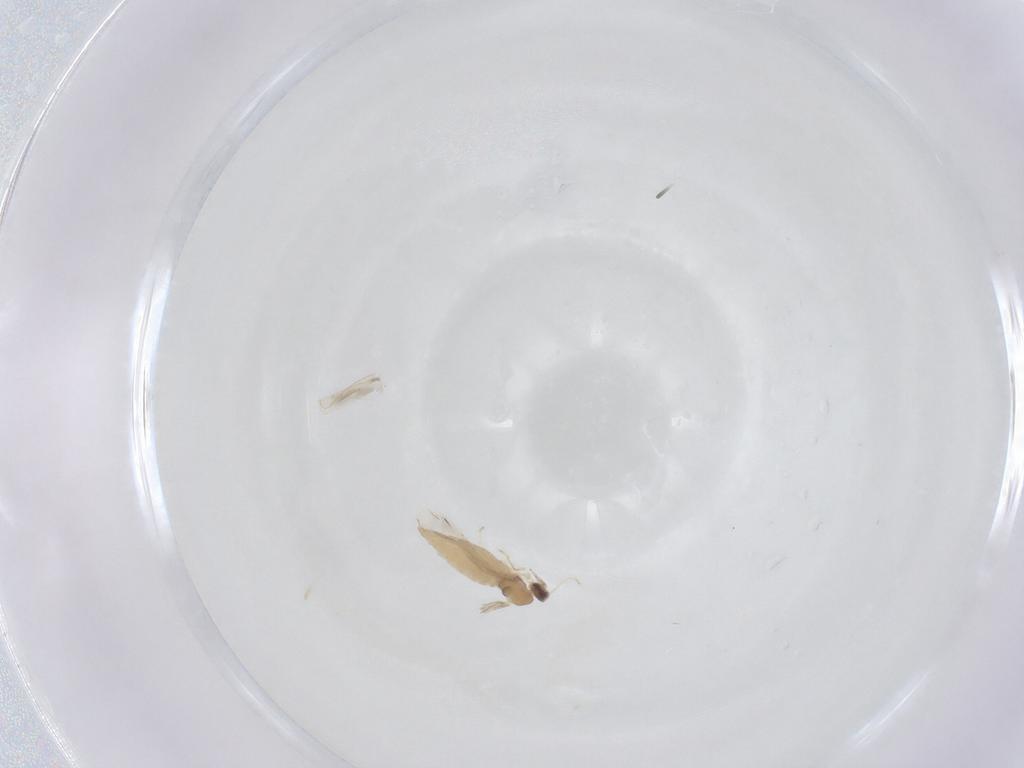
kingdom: Animalia
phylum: Arthropoda
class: Insecta
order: Diptera
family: Cecidomyiidae
